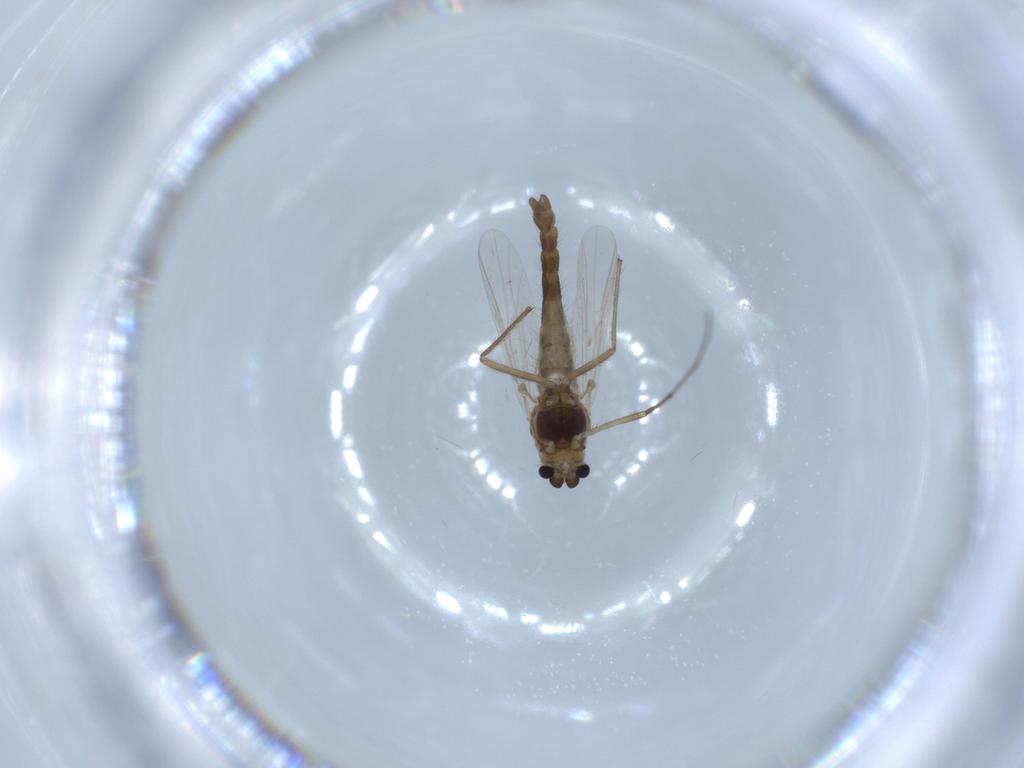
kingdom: Animalia
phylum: Arthropoda
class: Insecta
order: Diptera
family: Chironomidae
